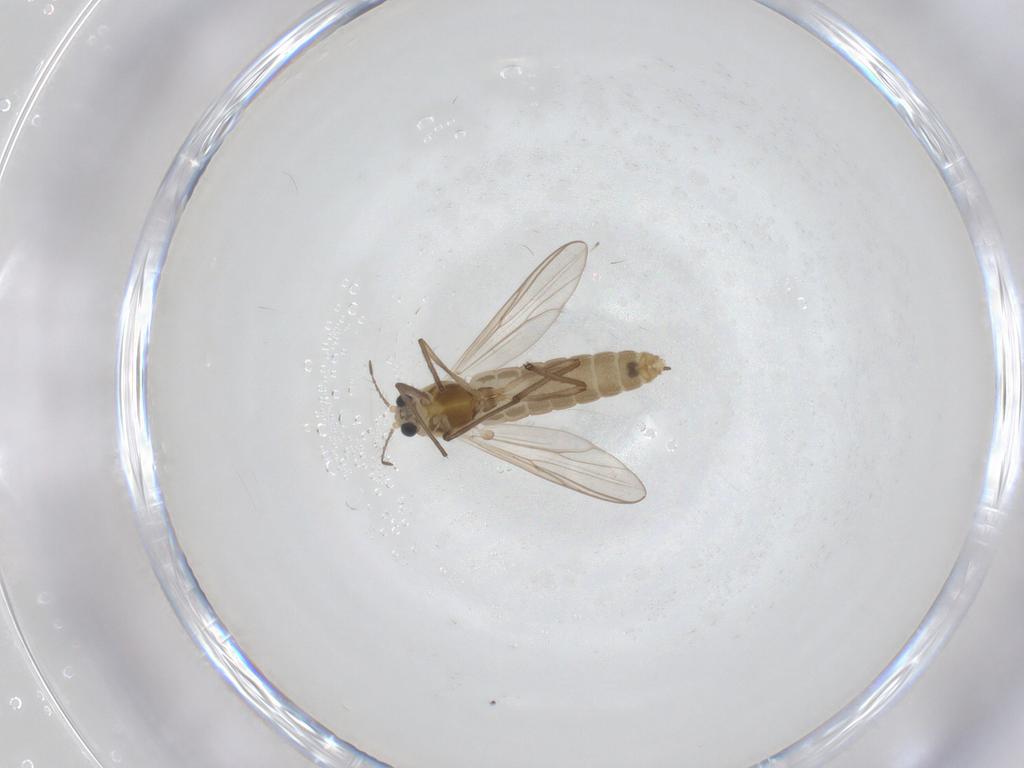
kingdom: Animalia
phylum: Arthropoda
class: Insecta
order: Diptera
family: Chironomidae
